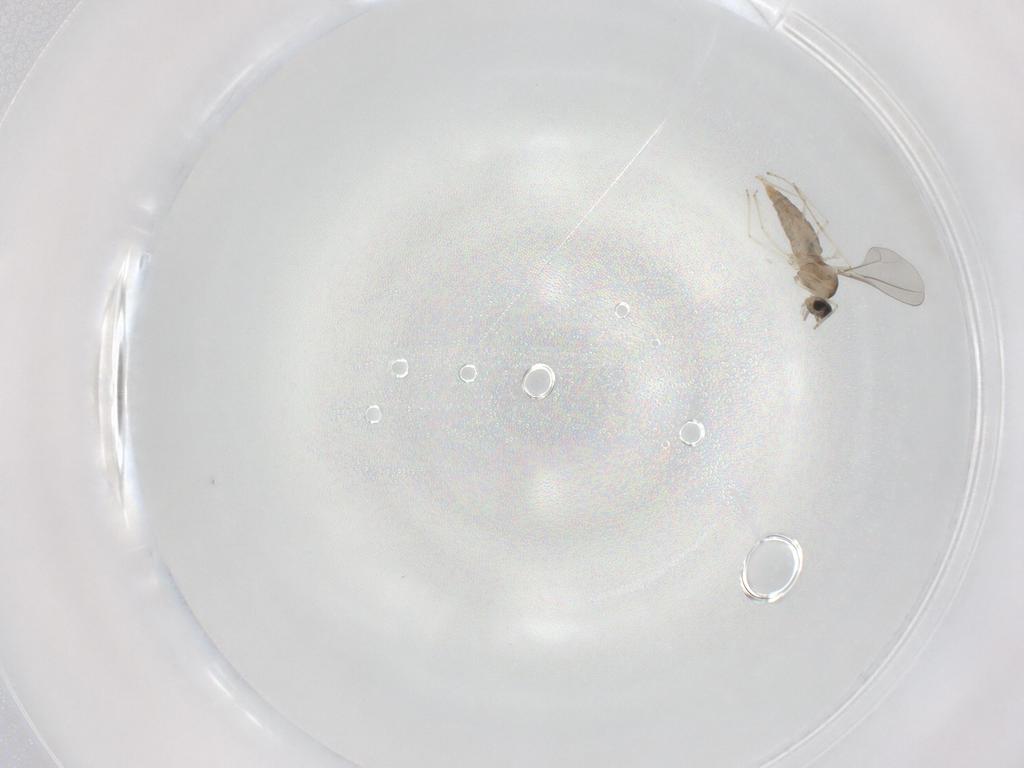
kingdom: Animalia
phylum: Arthropoda
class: Insecta
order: Diptera
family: Cecidomyiidae
